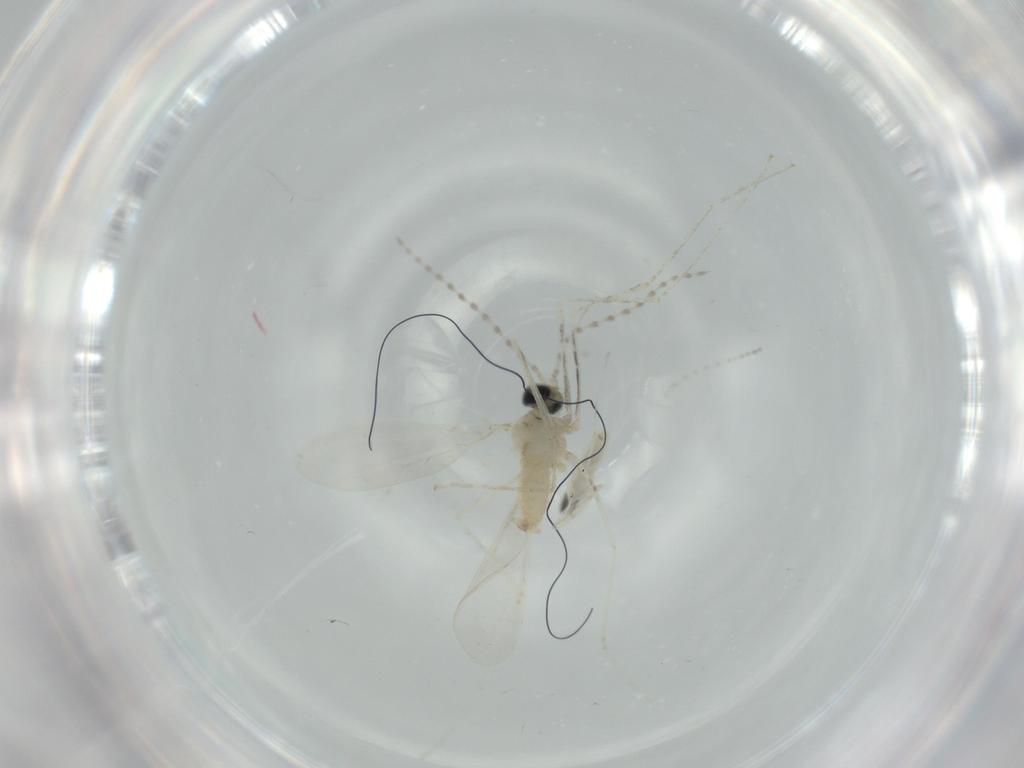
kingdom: Animalia
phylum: Arthropoda
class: Insecta
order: Diptera
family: Cecidomyiidae
